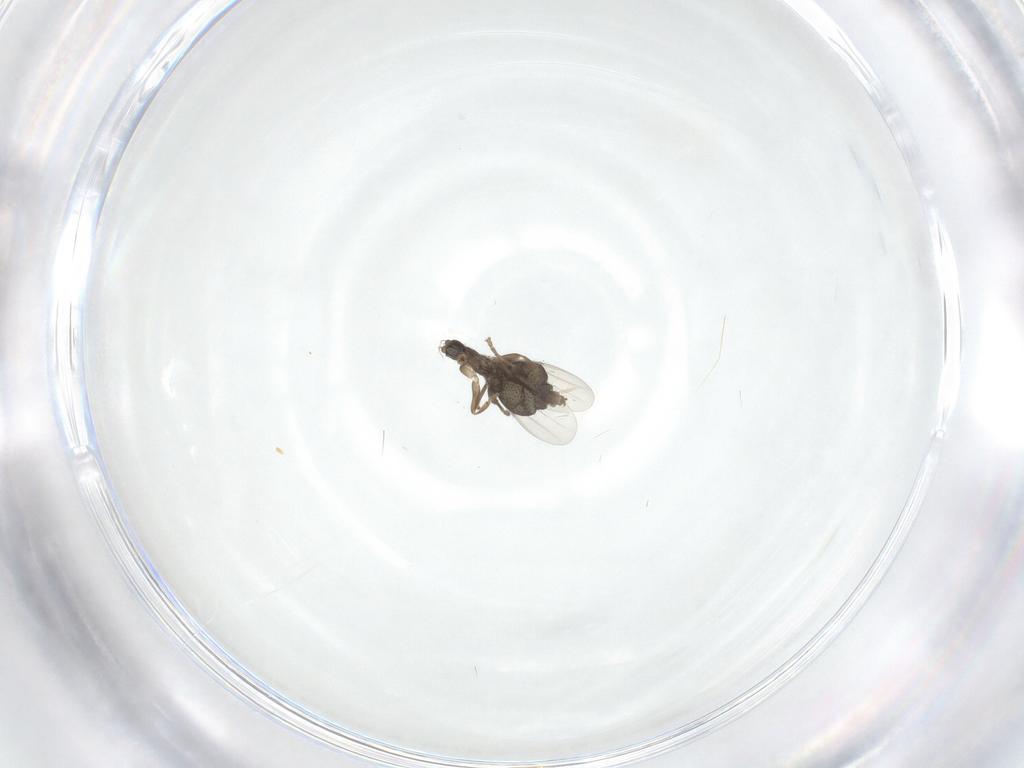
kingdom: Animalia
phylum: Arthropoda
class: Insecta
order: Diptera
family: Phoridae
